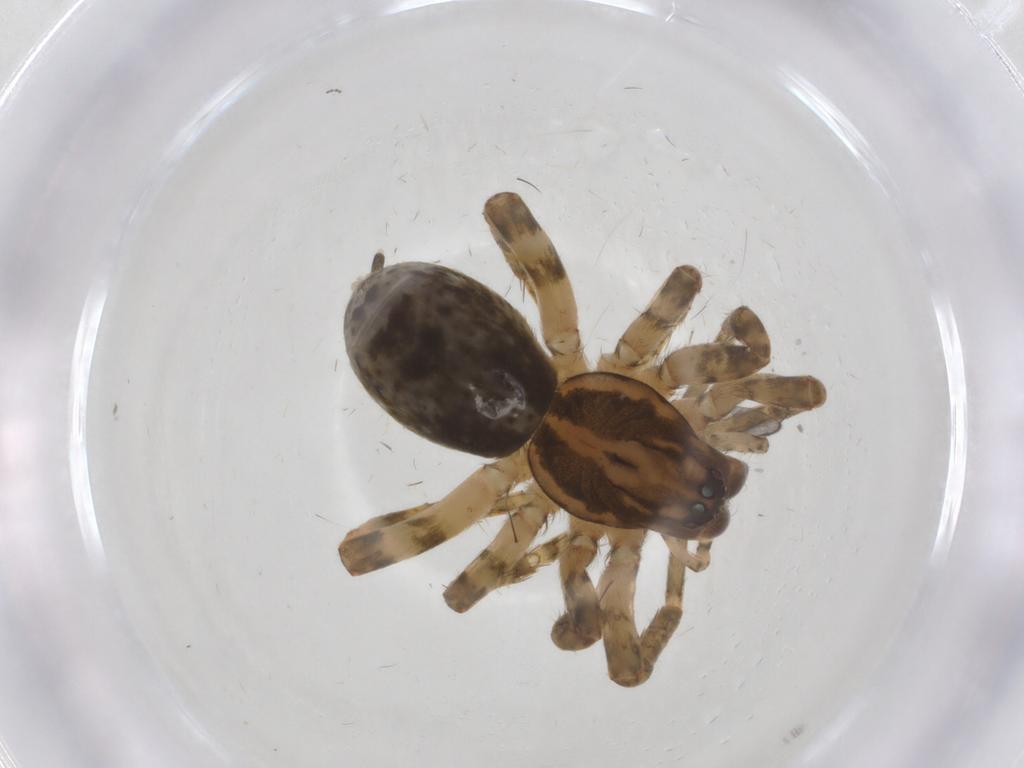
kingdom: Animalia
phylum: Arthropoda
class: Arachnida
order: Araneae
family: Anyphaenidae
